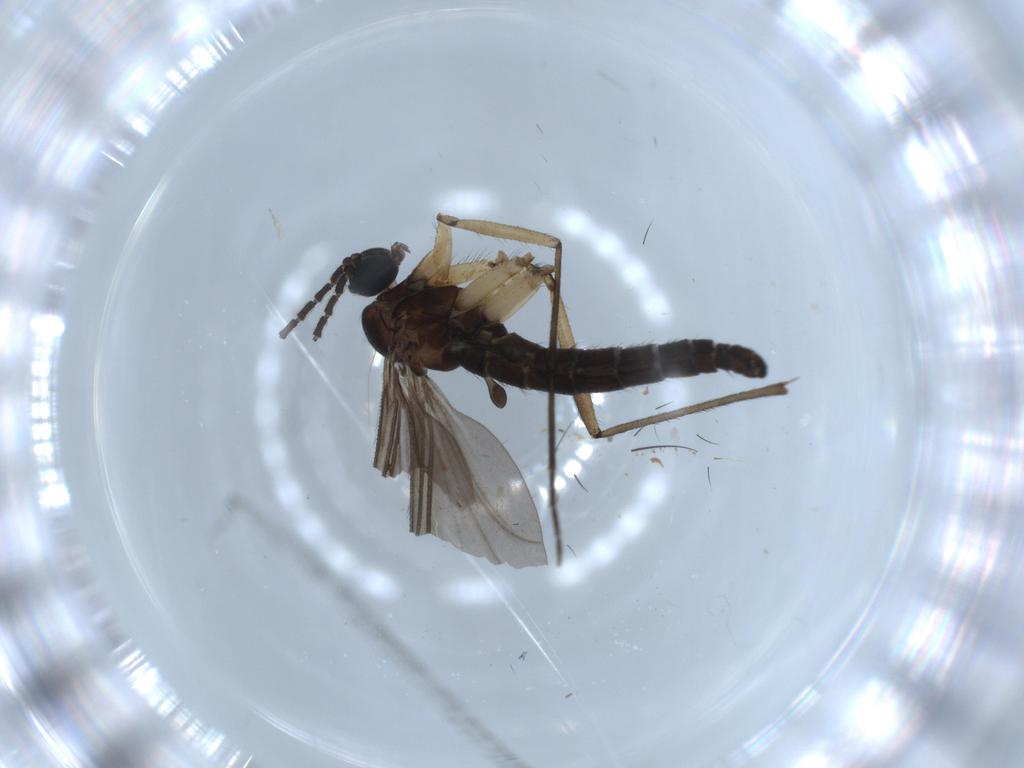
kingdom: Animalia
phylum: Arthropoda
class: Insecta
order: Diptera
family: Sciaridae
